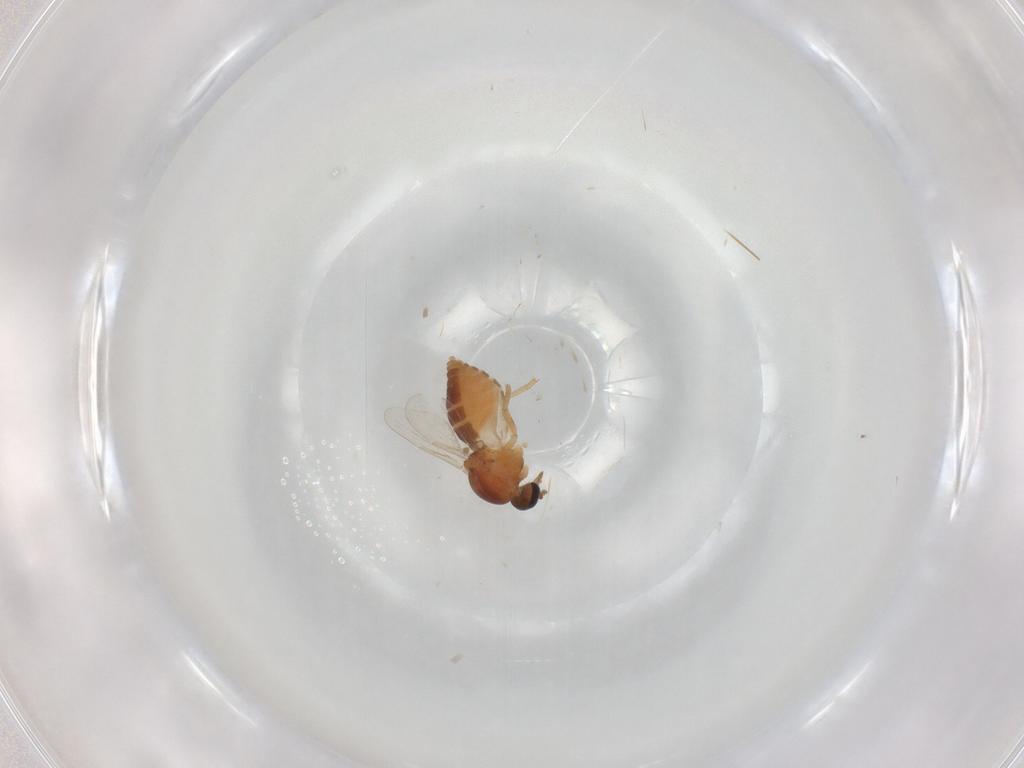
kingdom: Animalia
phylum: Arthropoda
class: Insecta
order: Diptera
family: Ceratopogonidae
